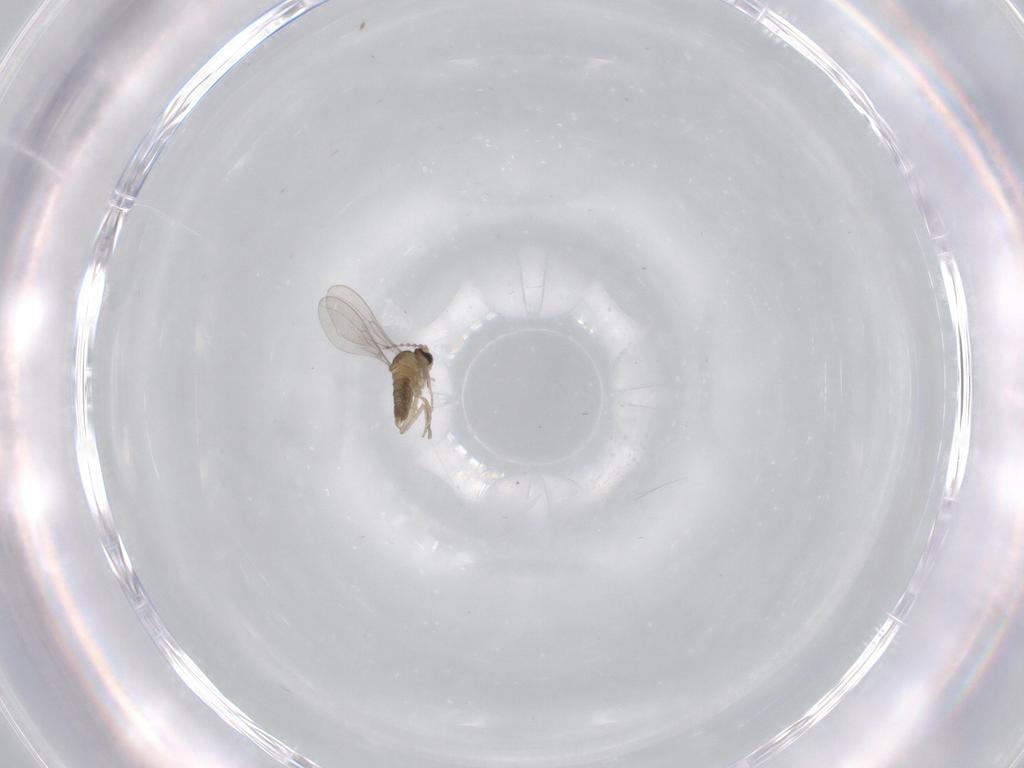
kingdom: Animalia
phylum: Arthropoda
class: Insecta
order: Diptera
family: Cecidomyiidae
